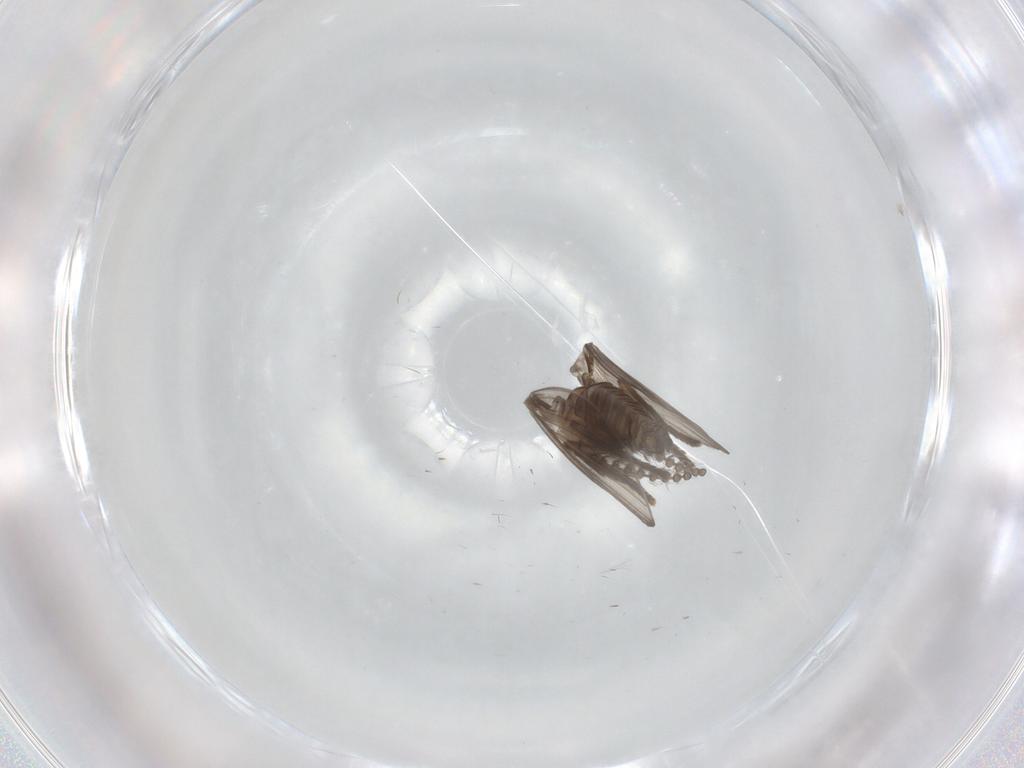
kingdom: Animalia
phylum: Arthropoda
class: Insecta
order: Diptera
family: Psychodidae
